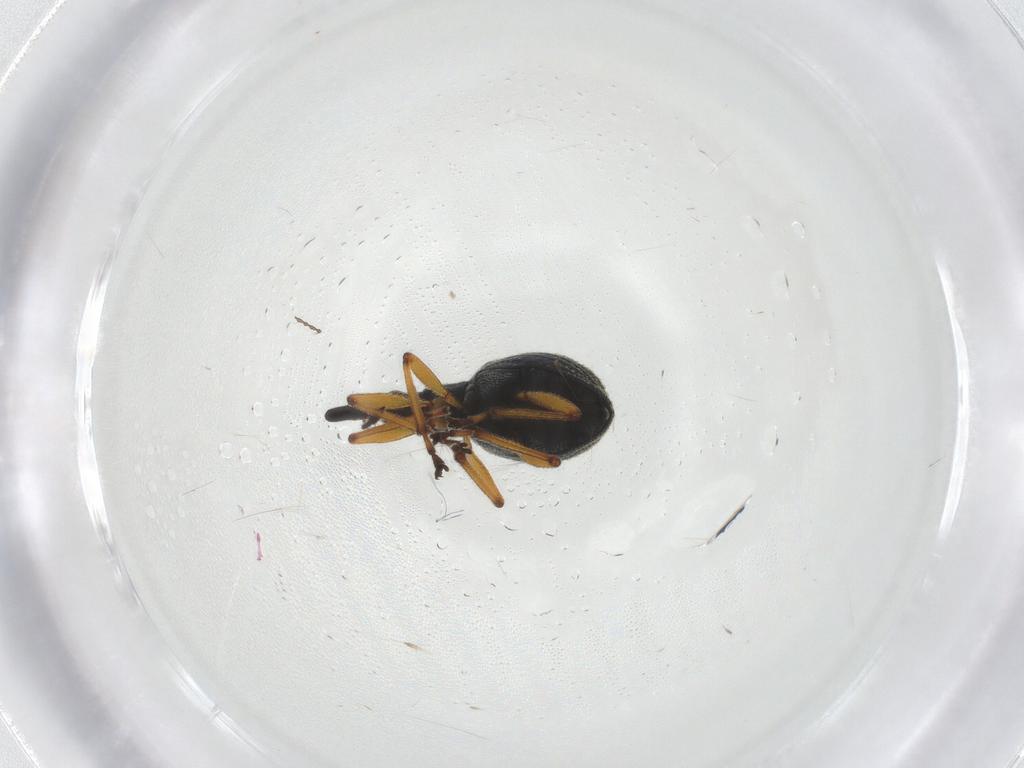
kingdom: Animalia
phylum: Arthropoda
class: Insecta
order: Coleoptera
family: Brentidae
